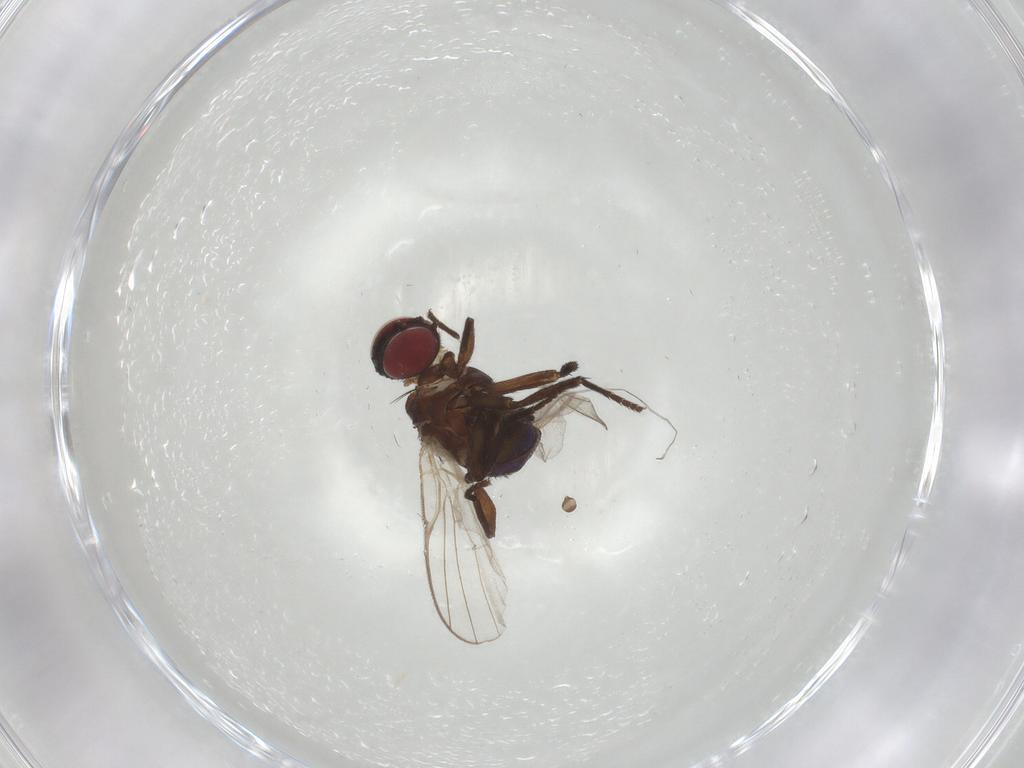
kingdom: Animalia
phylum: Arthropoda
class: Insecta
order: Diptera
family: Agromyzidae
